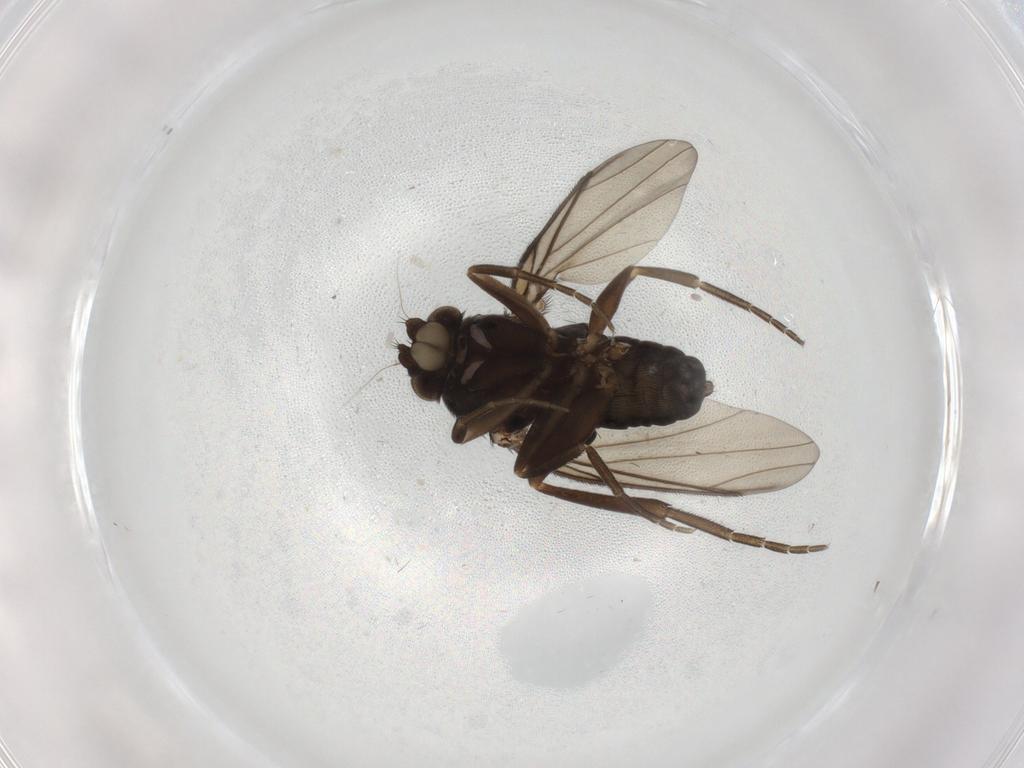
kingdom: Animalia
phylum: Arthropoda
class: Insecta
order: Diptera
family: Phoridae
